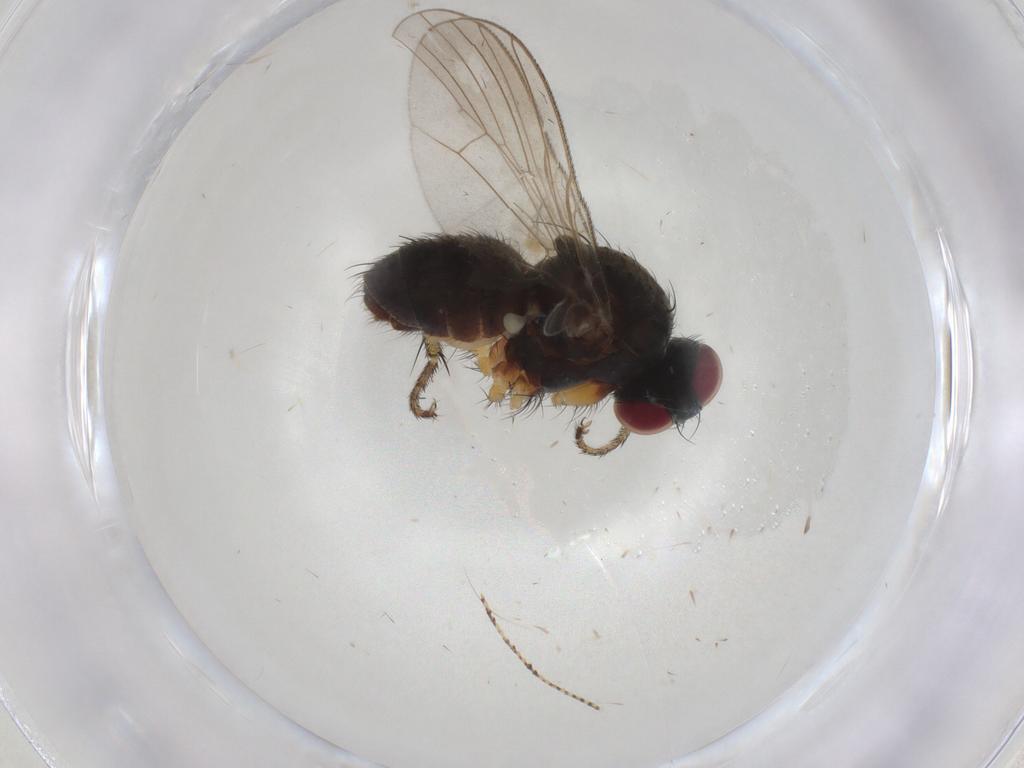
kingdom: Animalia
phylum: Arthropoda
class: Insecta
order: Diptera
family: Muscidae
